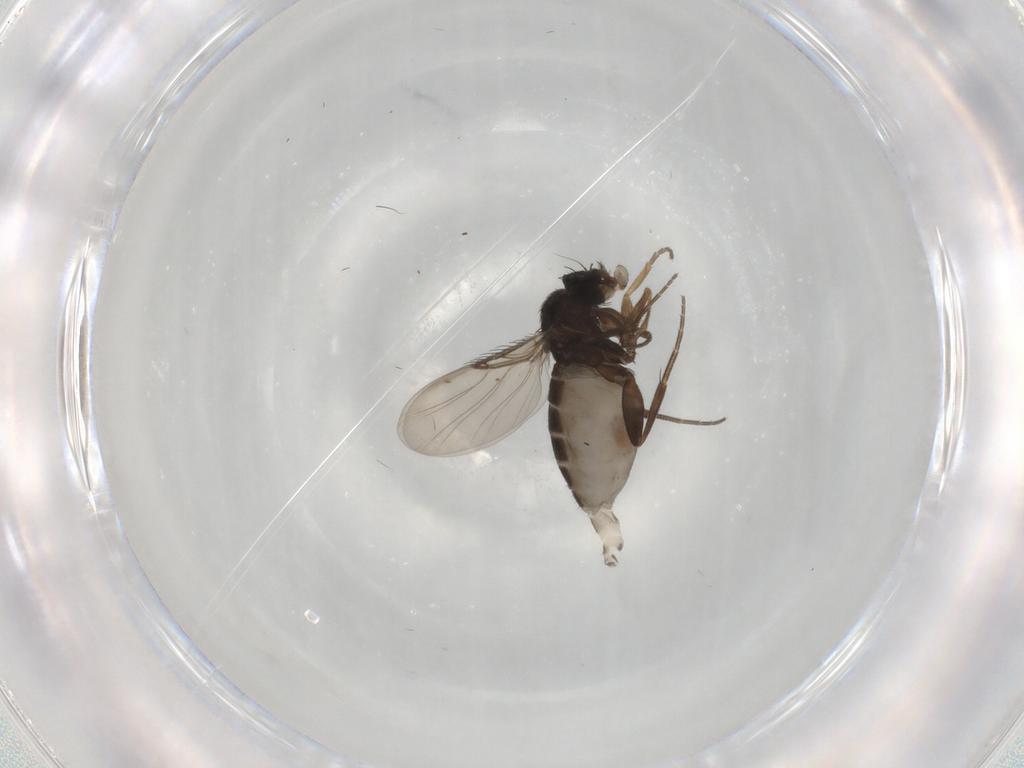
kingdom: Animalia
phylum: Arthropoda
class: Insecta
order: Diptera
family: Phoridae
